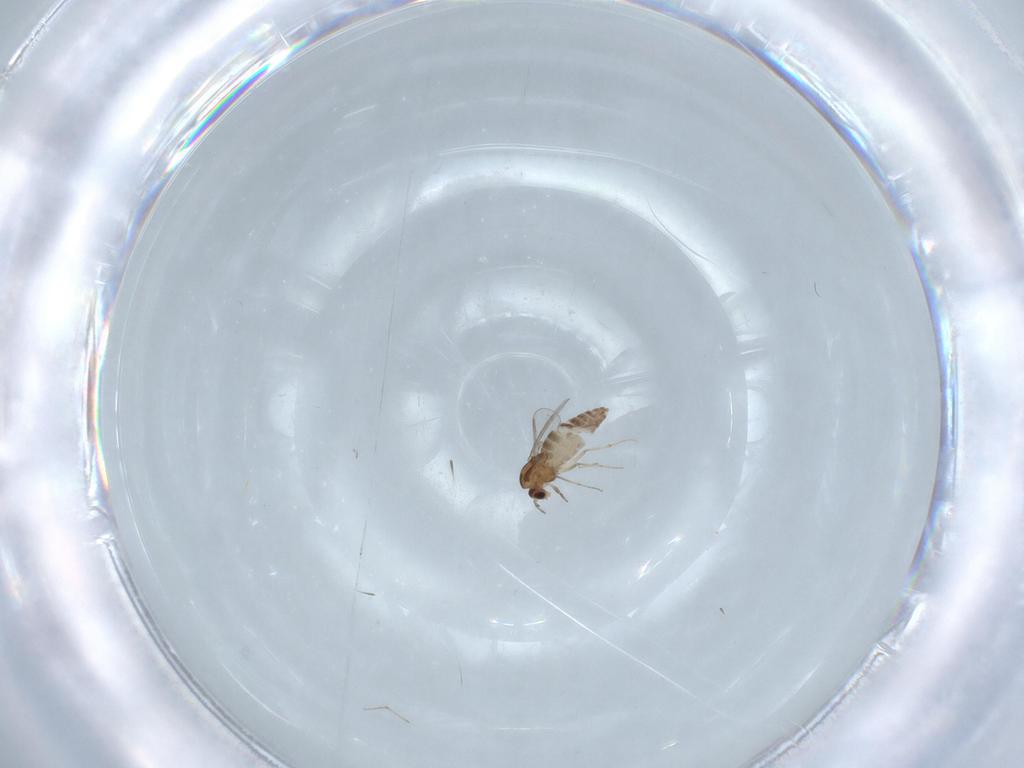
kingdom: Animalia
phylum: Arthropoda
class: Insecta
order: Diptera
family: Chironomidae
